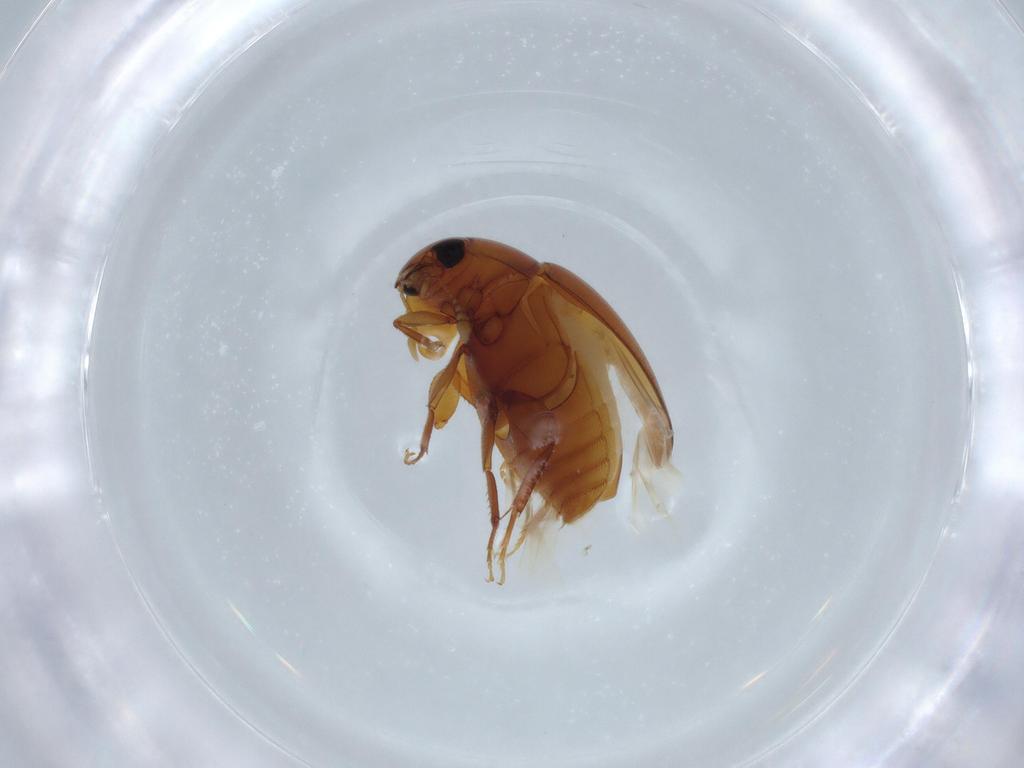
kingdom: Animalia
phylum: Arthropoda
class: Insecta
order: Coleoptera
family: Phalacridae
